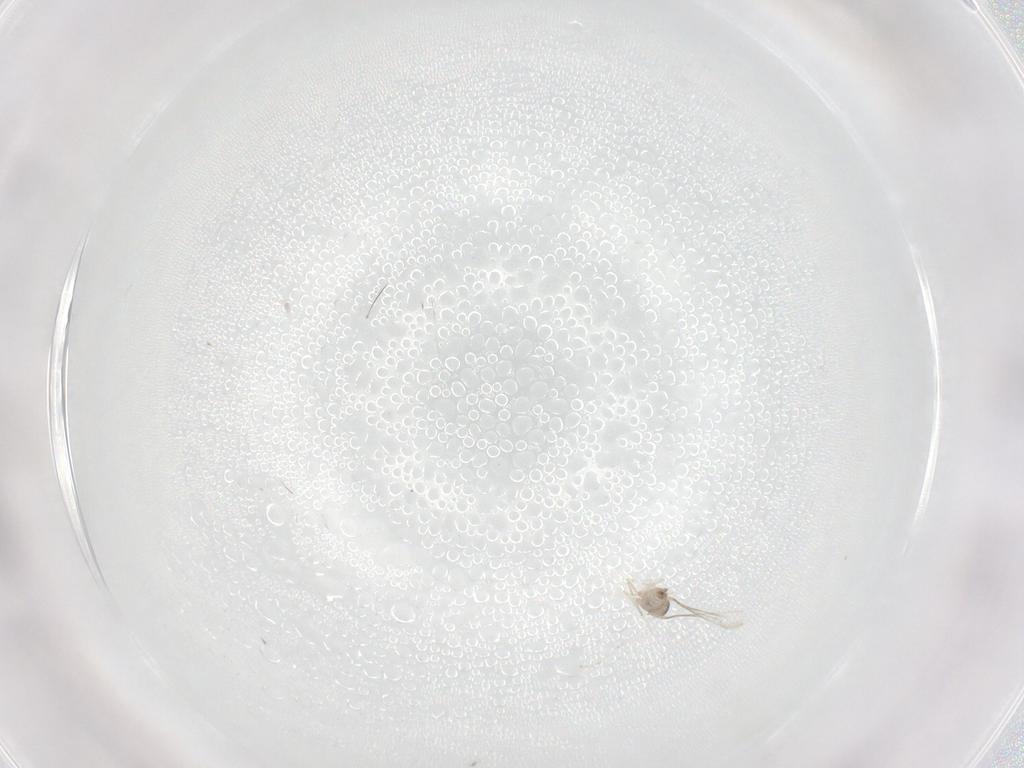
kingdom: Animalia
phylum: Arthropoda
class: Insecta
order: Diptera
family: Cecidomyiidae
